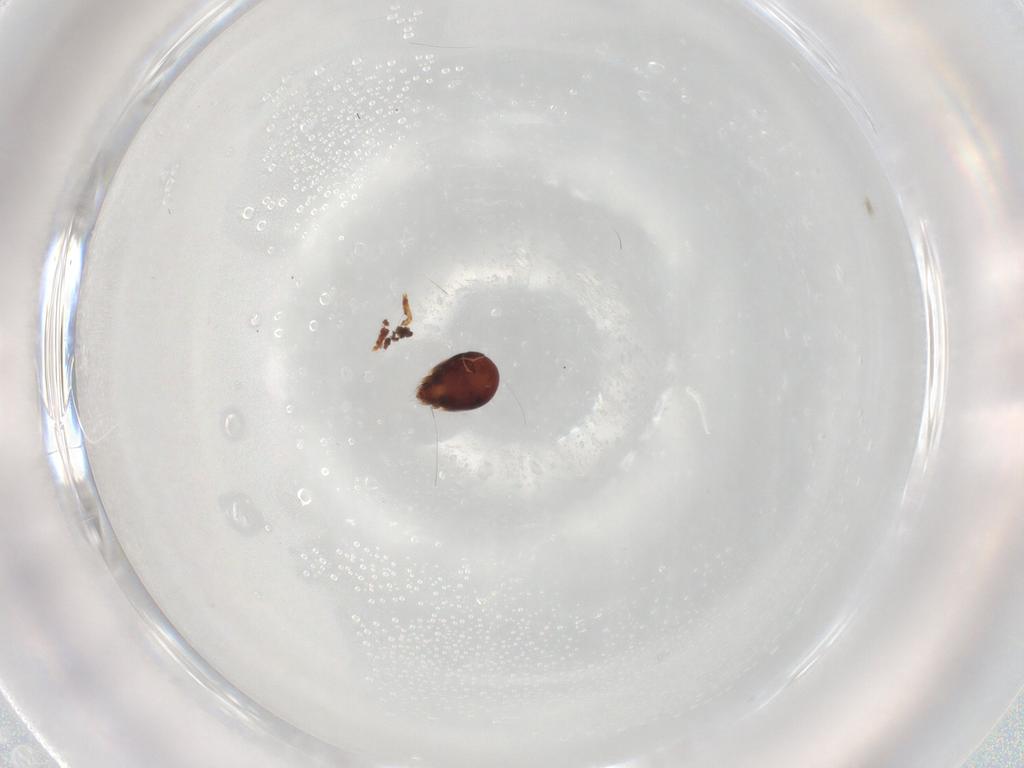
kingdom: Animalia
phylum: Arthropoda
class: Arachnida
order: Sarcoptiformes
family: Humerobatidae
